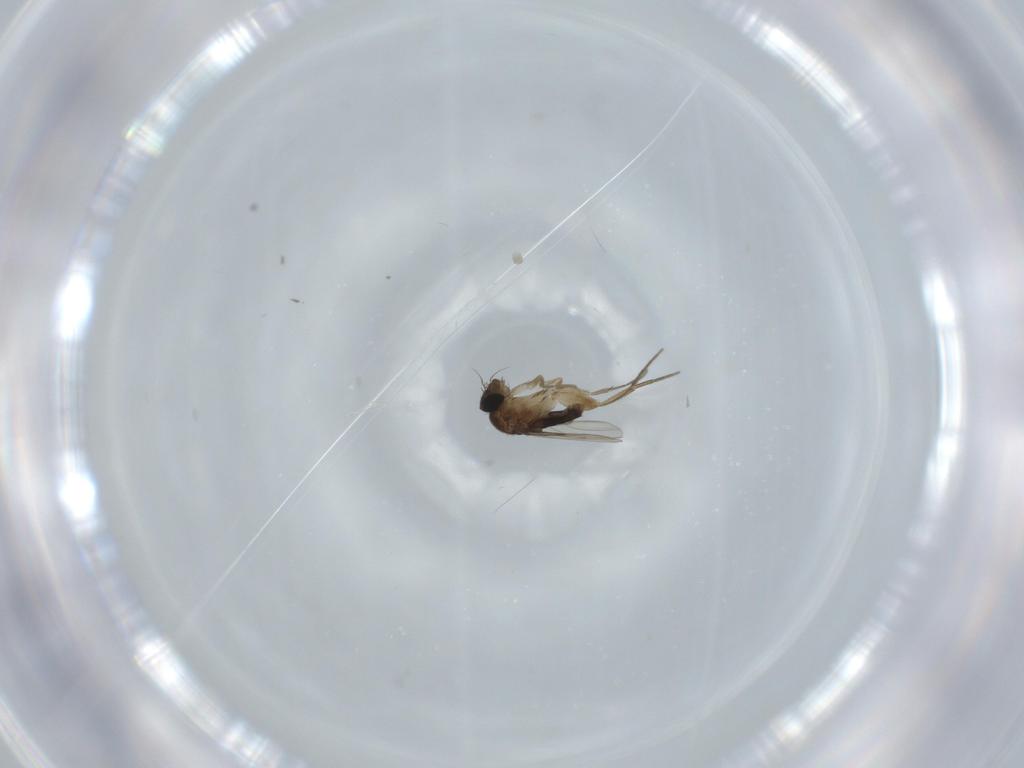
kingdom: Animalia
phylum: Arthropoda
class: Insecta
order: Diptera
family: Phoridae
